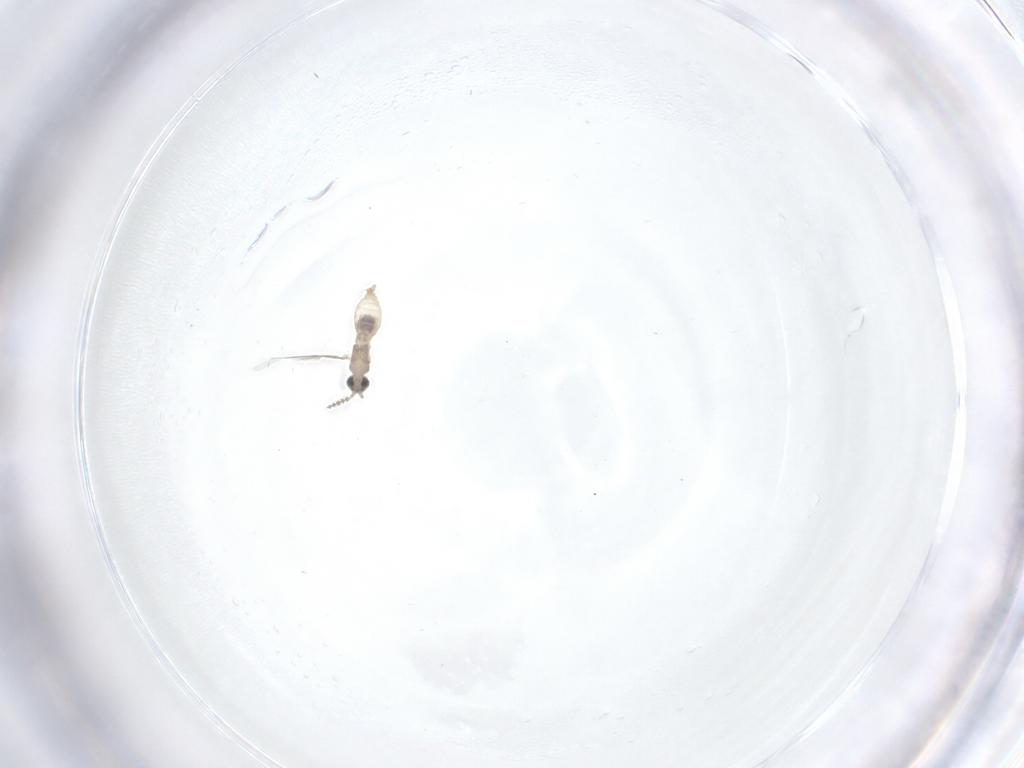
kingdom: Animalia
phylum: Arthropoda
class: Insecta
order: Diptera
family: Cecidomyiidae
